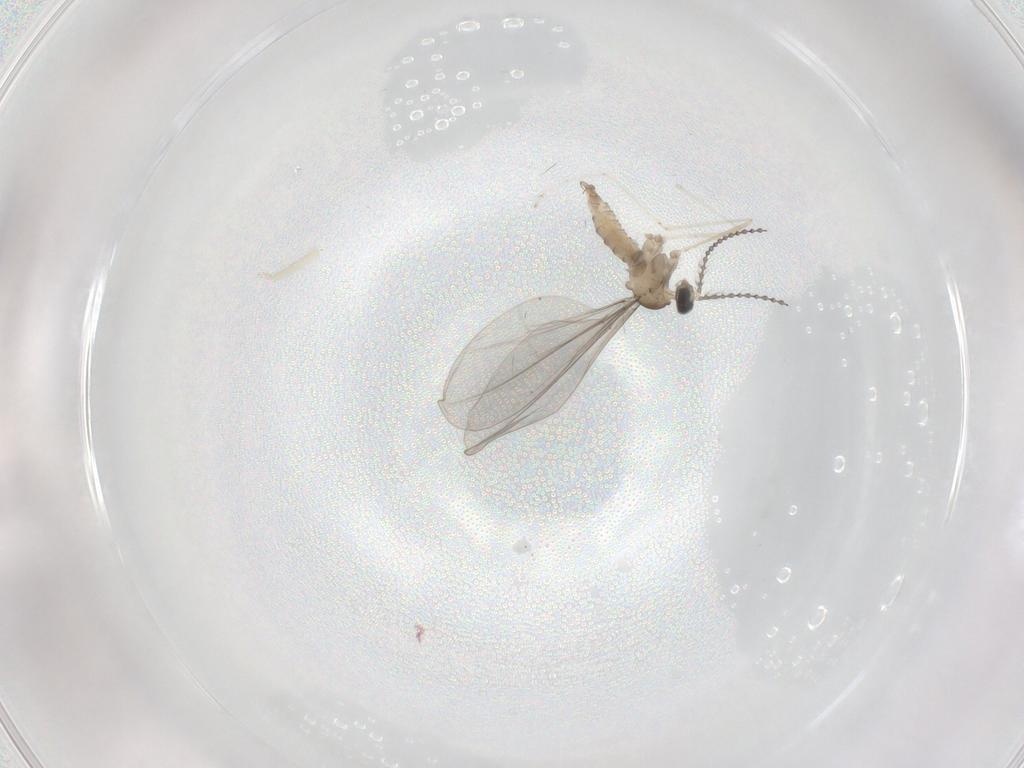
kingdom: Animalia
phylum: Arthropoda
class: Insecta
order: Diptera
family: Cecidomyiidae
